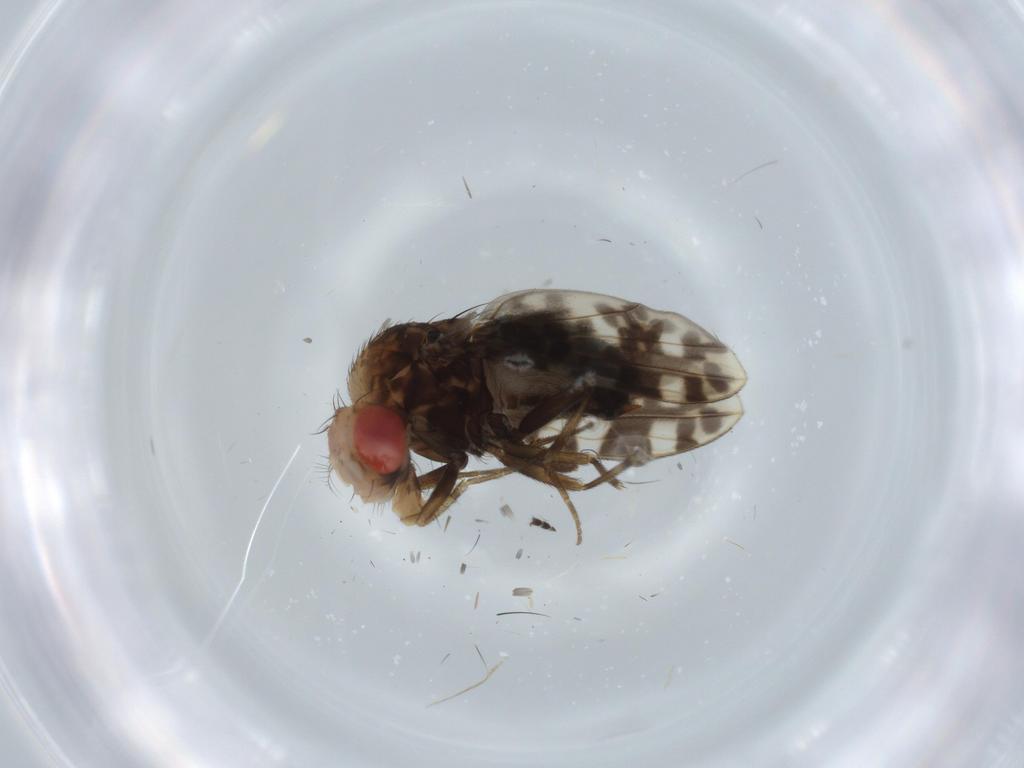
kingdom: Animalia
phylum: Arthropoda
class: Insecta
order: Diptera
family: Drosophilidae
